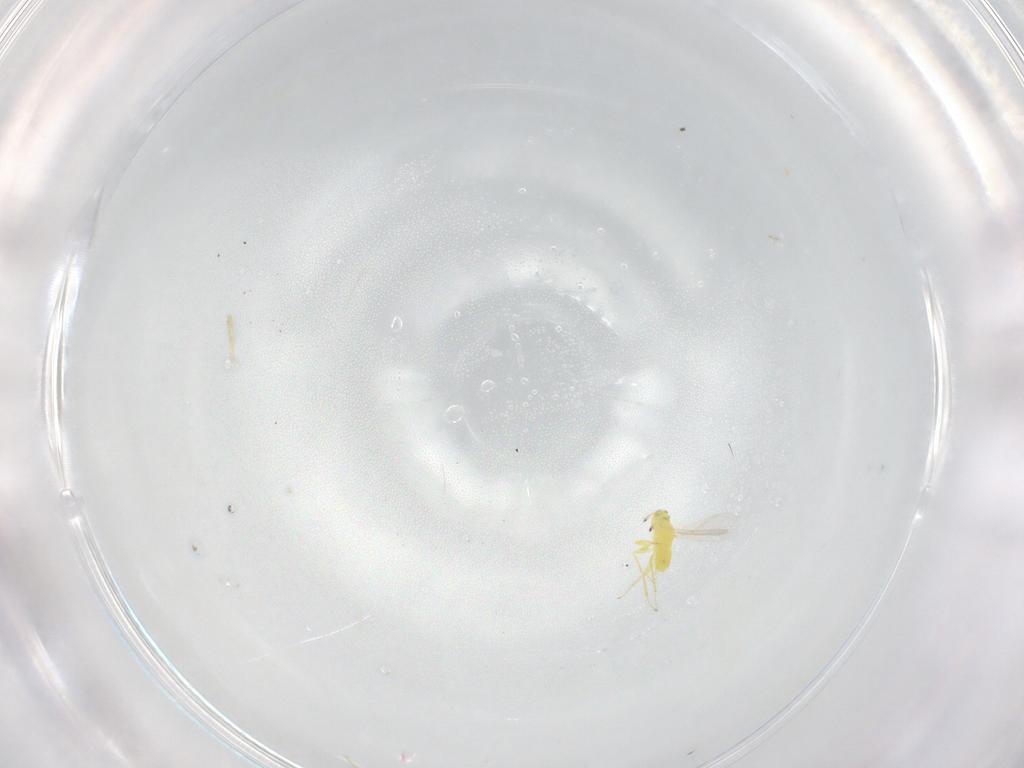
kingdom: Animalia
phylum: Arthropoda
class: Insecta
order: Hymenoptera
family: Aphelinidae
